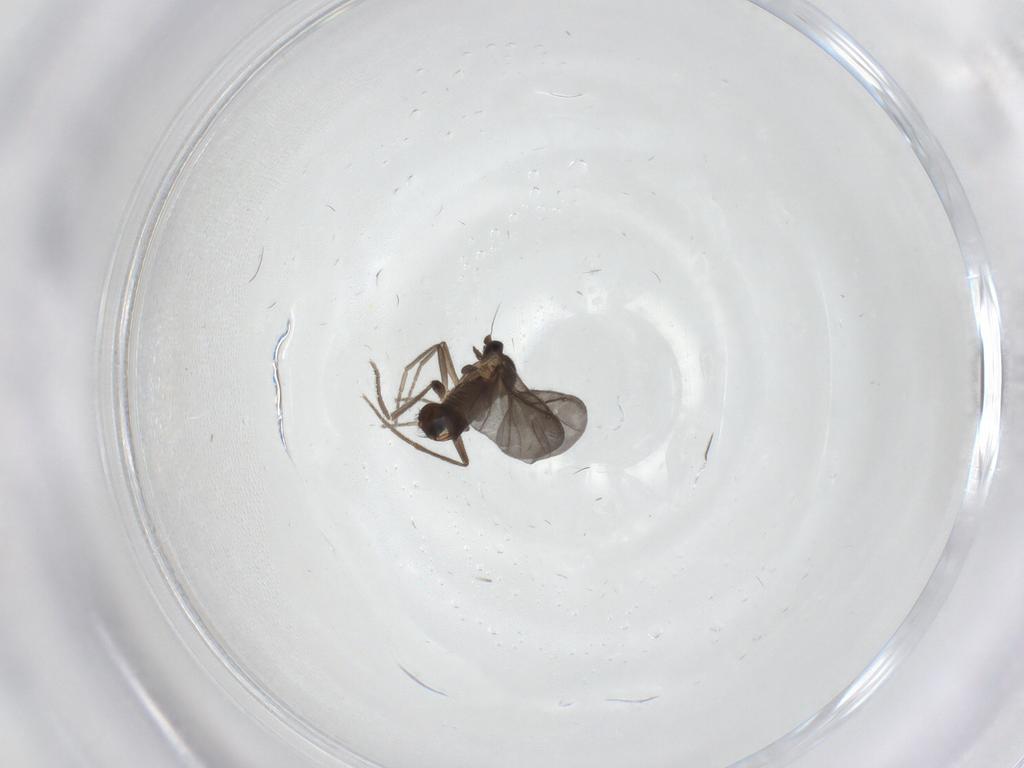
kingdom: Animalia
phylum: Arthropoda
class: Insecta
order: Diptera
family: Phoridae
